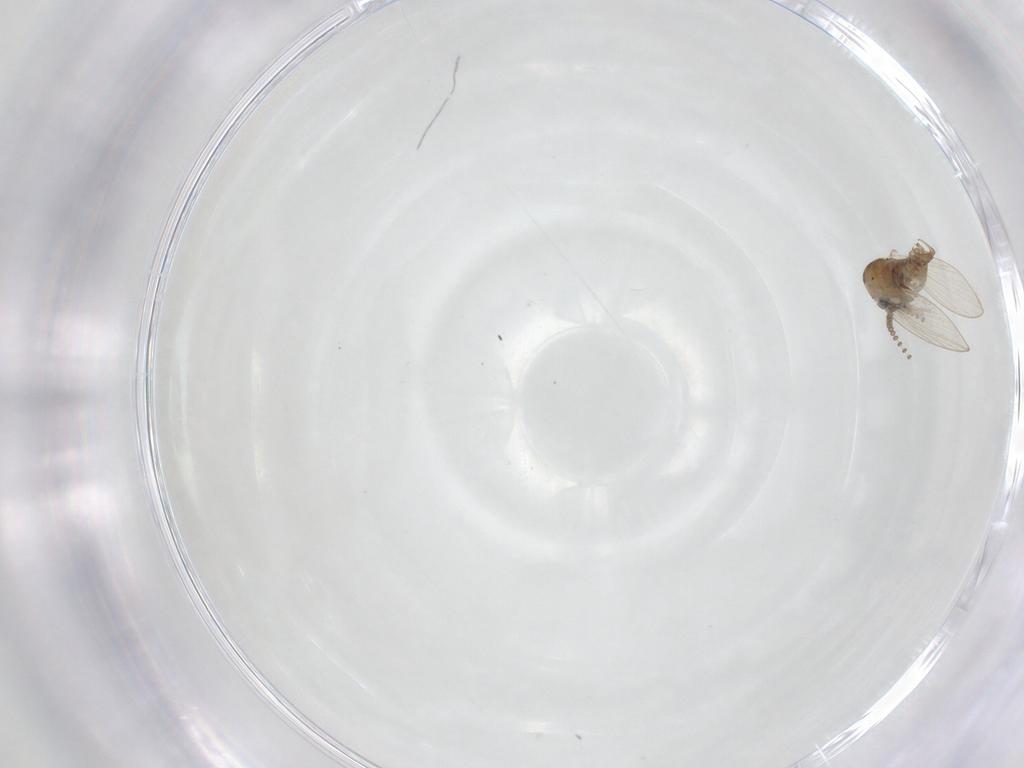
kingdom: Animalia
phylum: Arthropoda
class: Insecta
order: Diptera
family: Psychodidae
